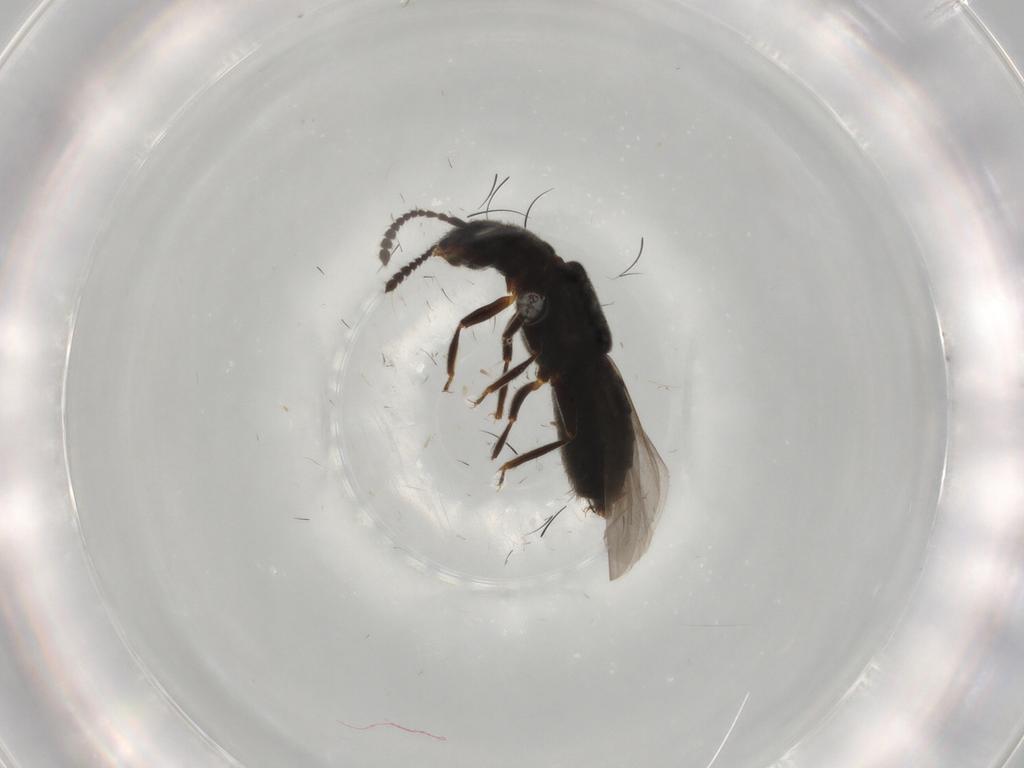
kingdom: Animalia
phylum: Arthropoda
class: Insecta
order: Coleoptera
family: Staphylinidae
